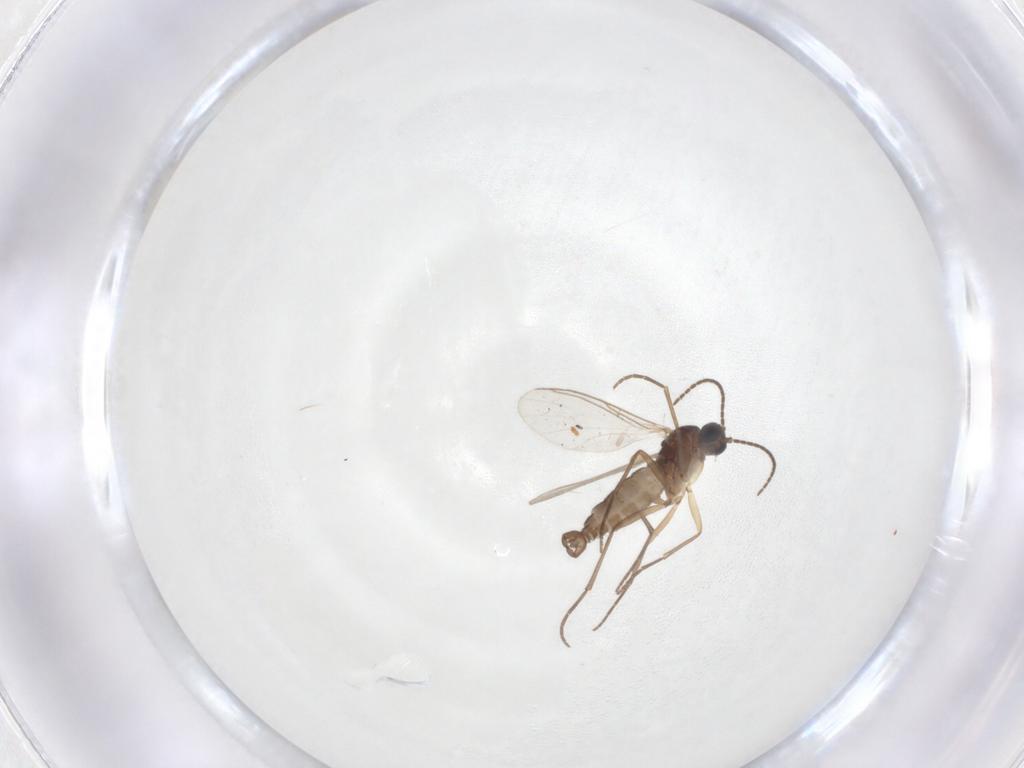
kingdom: Animalia
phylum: Arthropoda
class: Insecta
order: Diptera
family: Sciaridae
